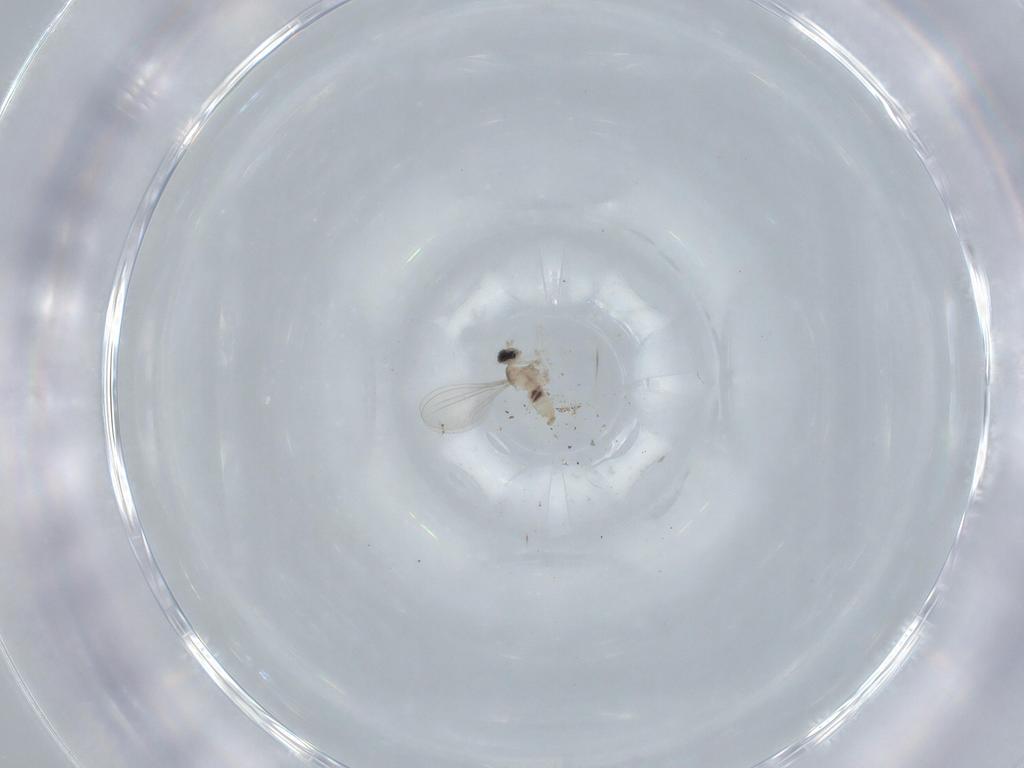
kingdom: Animalia
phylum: Arthropoda
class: Insecta
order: Diptera
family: Cecidomyiidae
